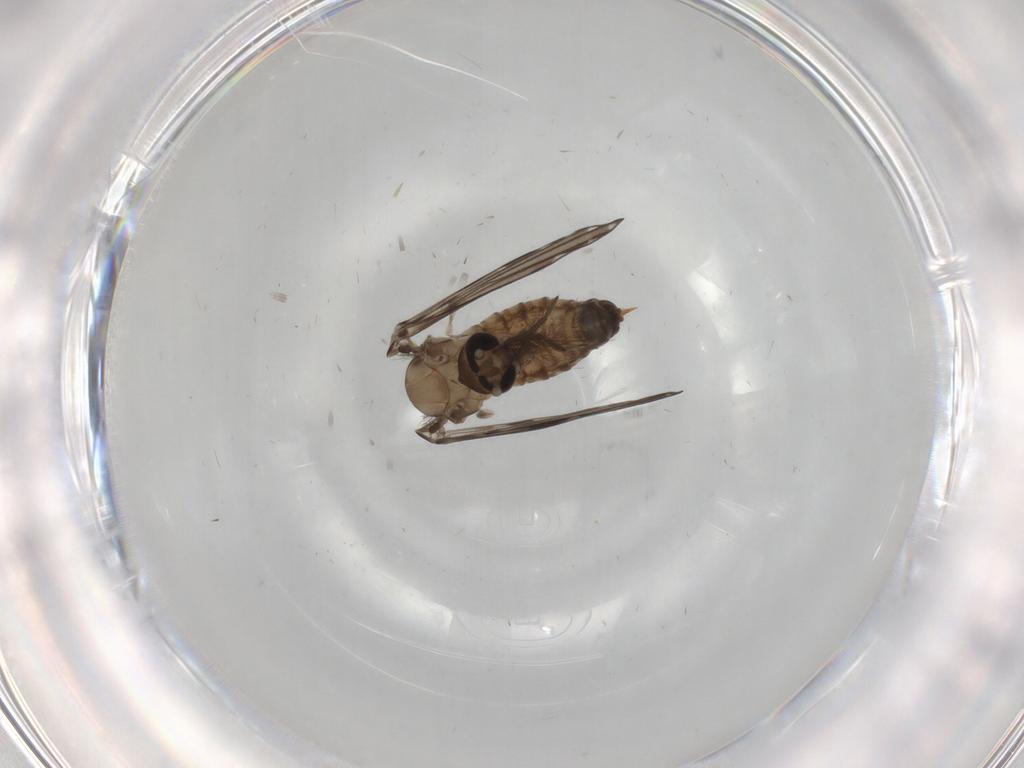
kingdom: Animalia
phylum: Arthropoda
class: Insecta
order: Diptera
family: Psychodidae
